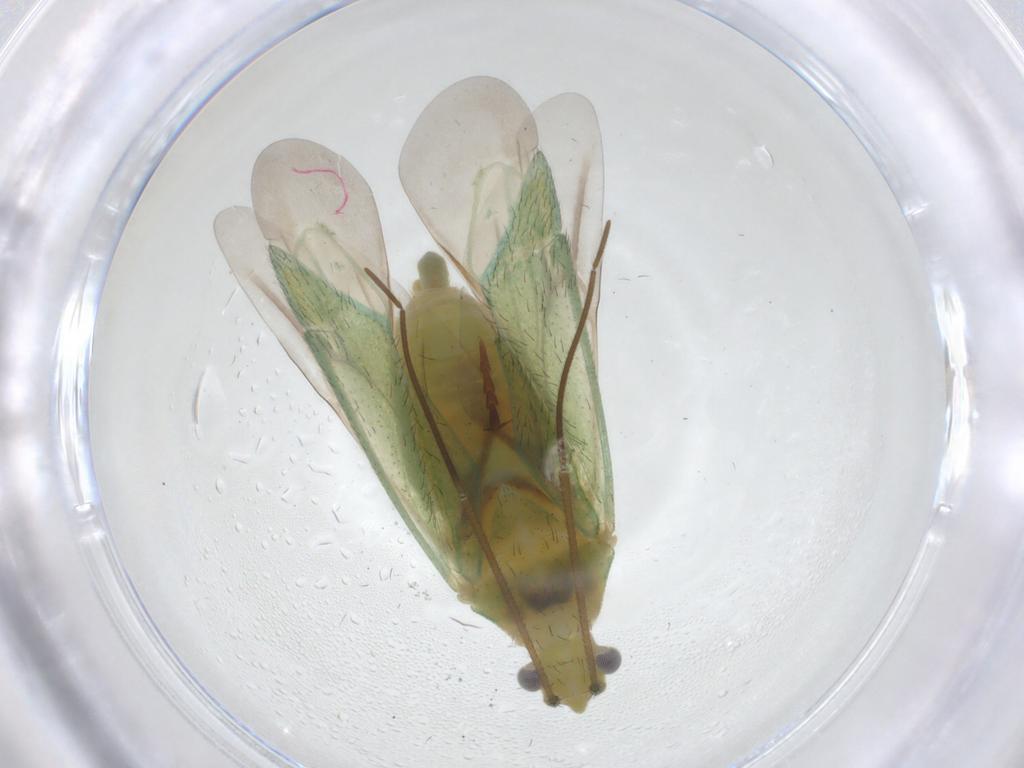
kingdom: Animalia
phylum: Arthropoda
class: Insecta
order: Hemiptera
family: Miridae
